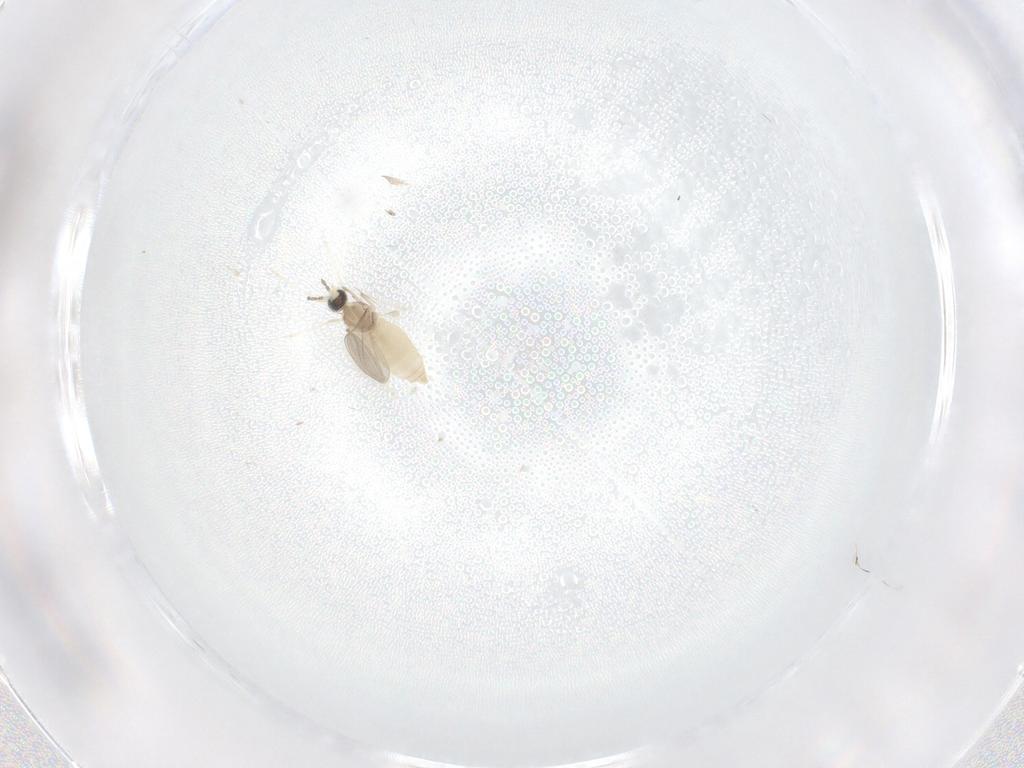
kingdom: Animalia
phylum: Arthropoda
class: Insecta
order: Diptera
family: Cecidomyiidae
